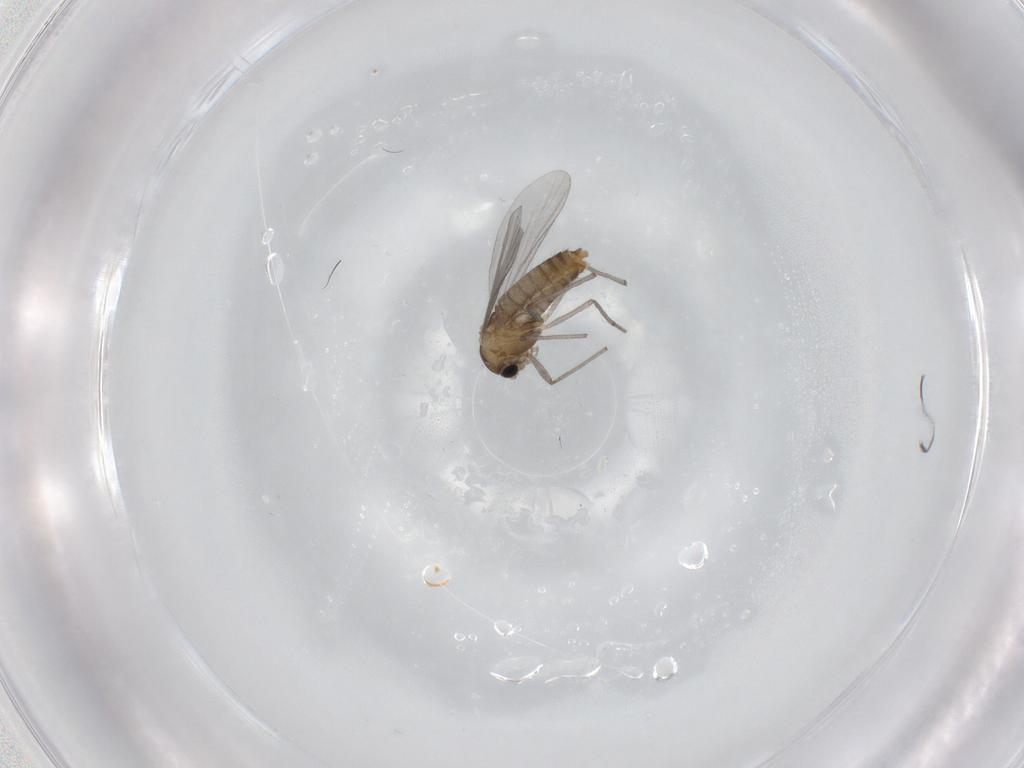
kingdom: Animalia
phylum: Arthropoda
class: Insecta
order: Diptera
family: Chironomidae
